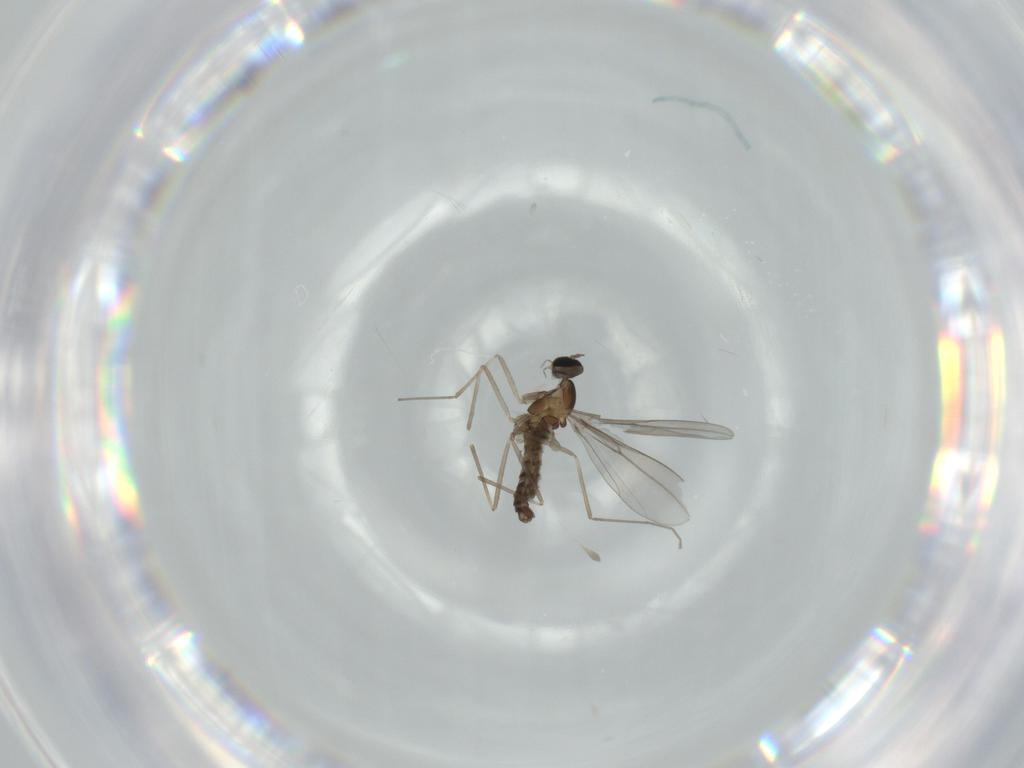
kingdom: Animalia
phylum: Arthropoda
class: Insecta
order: Diptera
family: Cecidomyiidae
